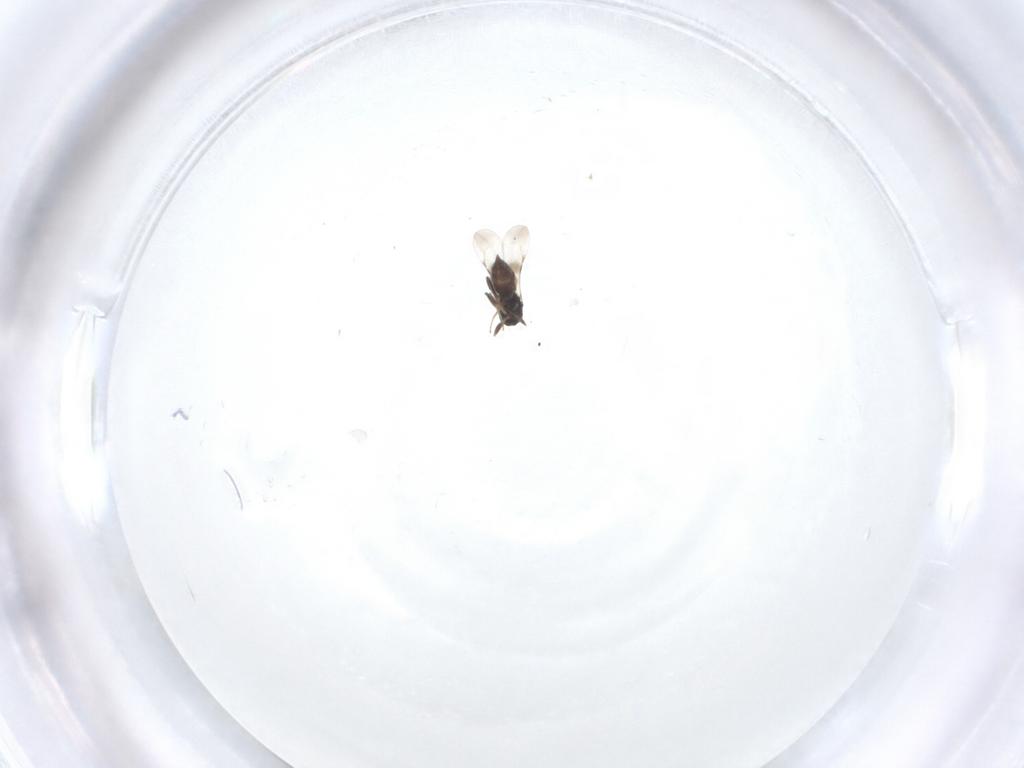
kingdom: Animalia
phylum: Arthropoda
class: Insecta
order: Hymenoptera
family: Ceraphronidae
